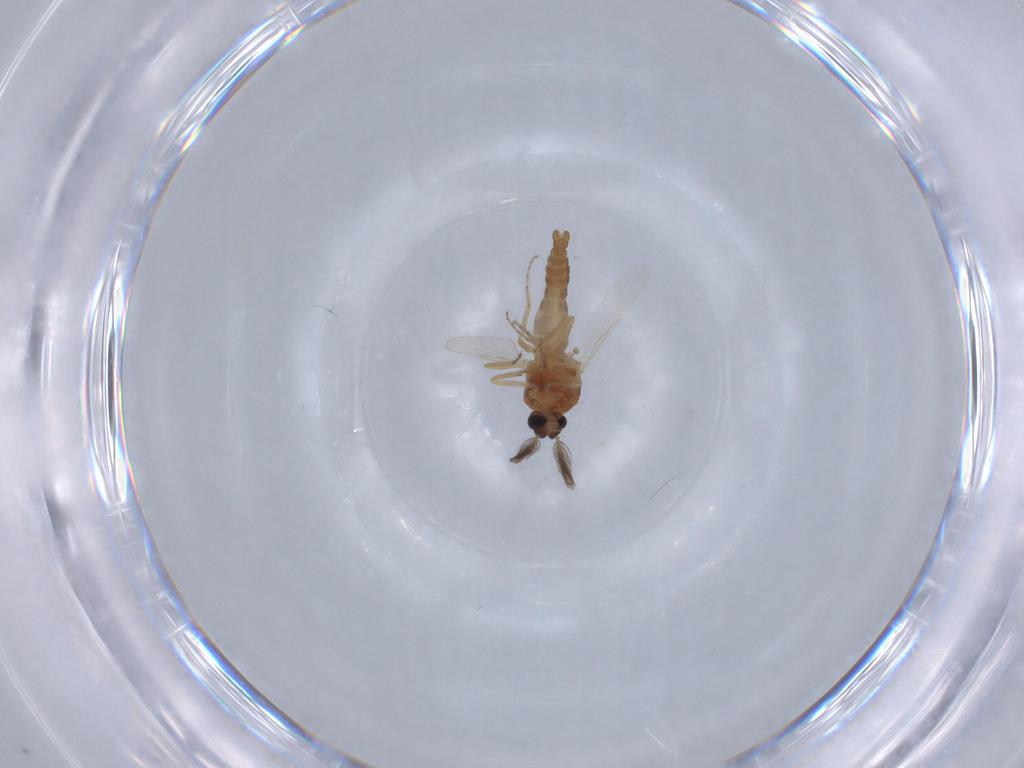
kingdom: Animalia
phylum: Arthropoda
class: Insecta
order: Diptera
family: Ceratopogonidae
